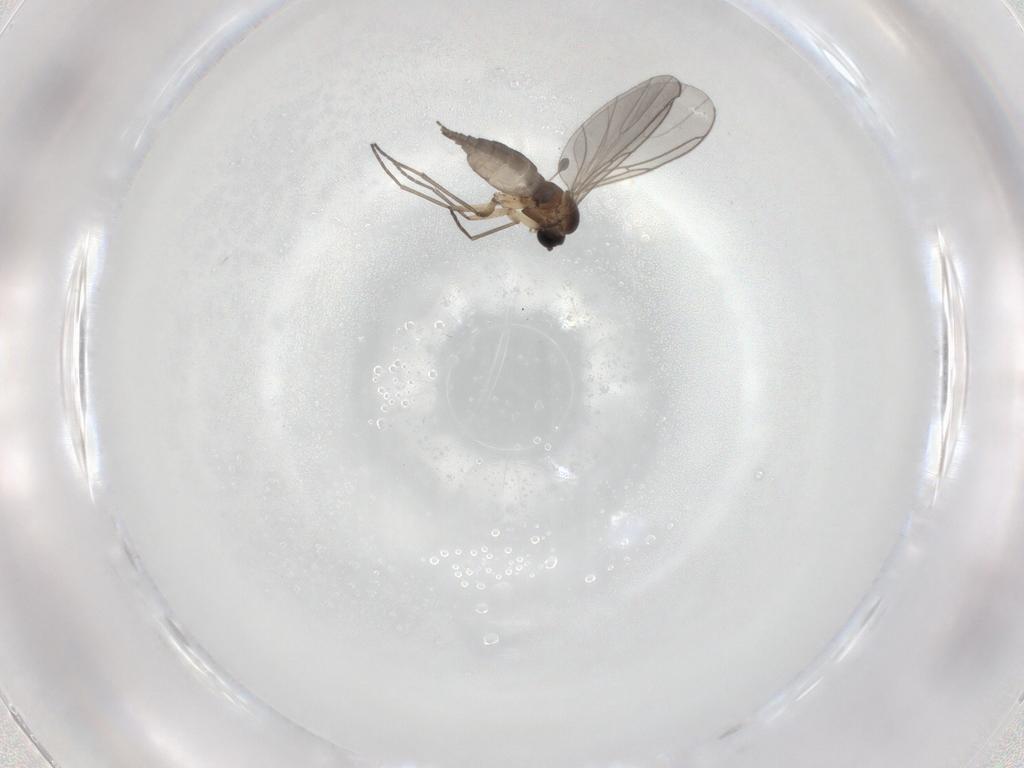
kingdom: Animalia
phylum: Arthropoda
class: Insecta
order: Diptera
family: Sciaridae
